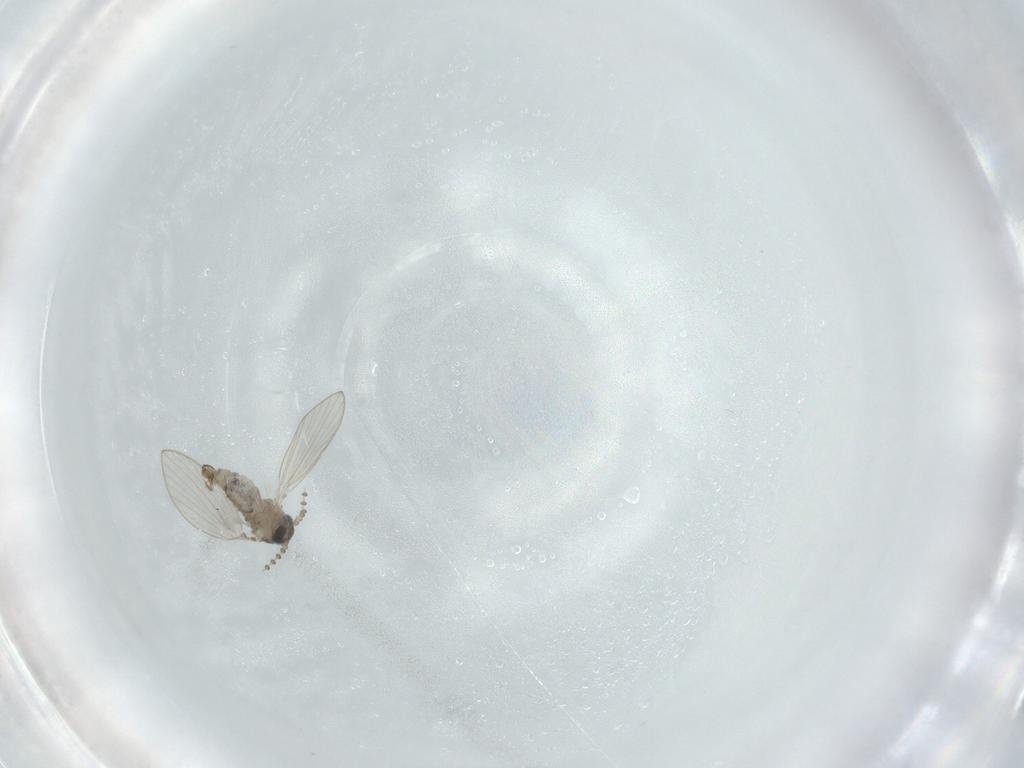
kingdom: Animalia
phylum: Arthropoda
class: Insecta
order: Diptera
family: Psychodidae
